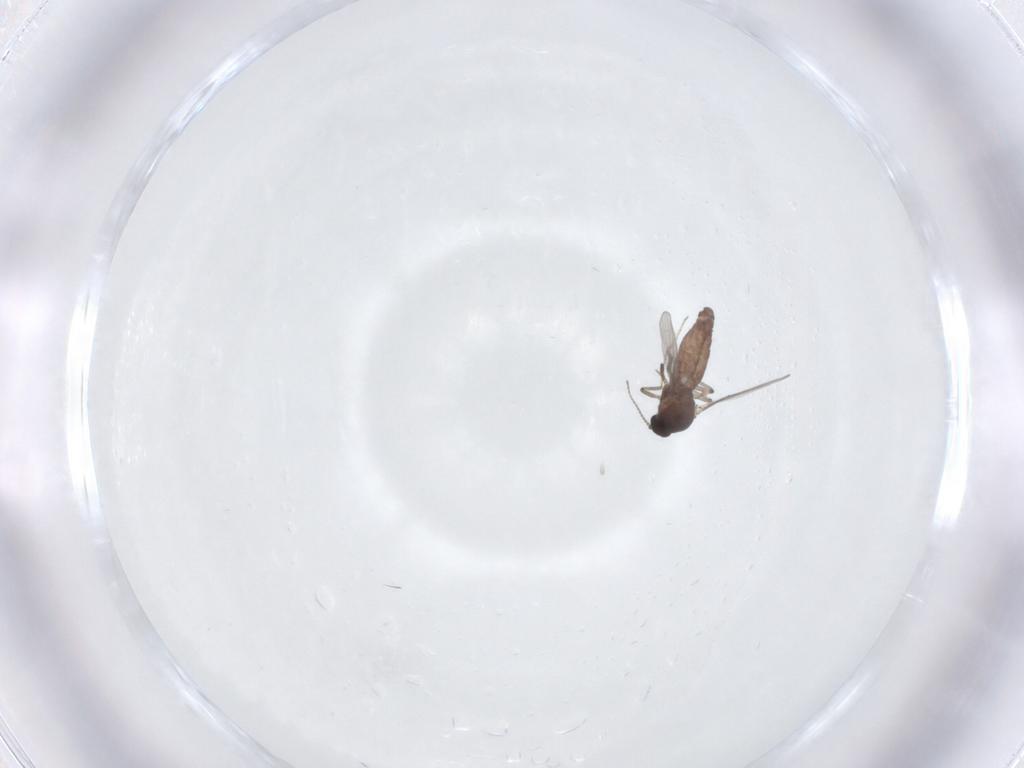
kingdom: Animalia
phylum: Arthropoda
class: Insecta
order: Diptera
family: Ceratopogonidae
